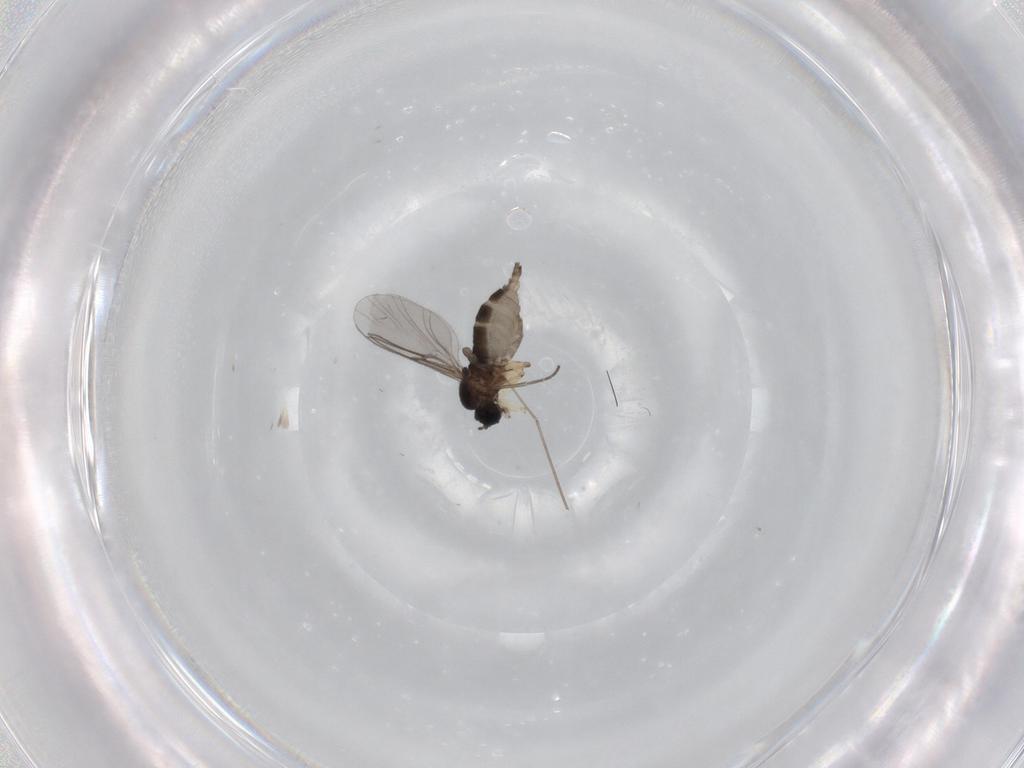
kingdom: Animalia
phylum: Arthropoda
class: Insecta
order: Diptera
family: Sciaridae
